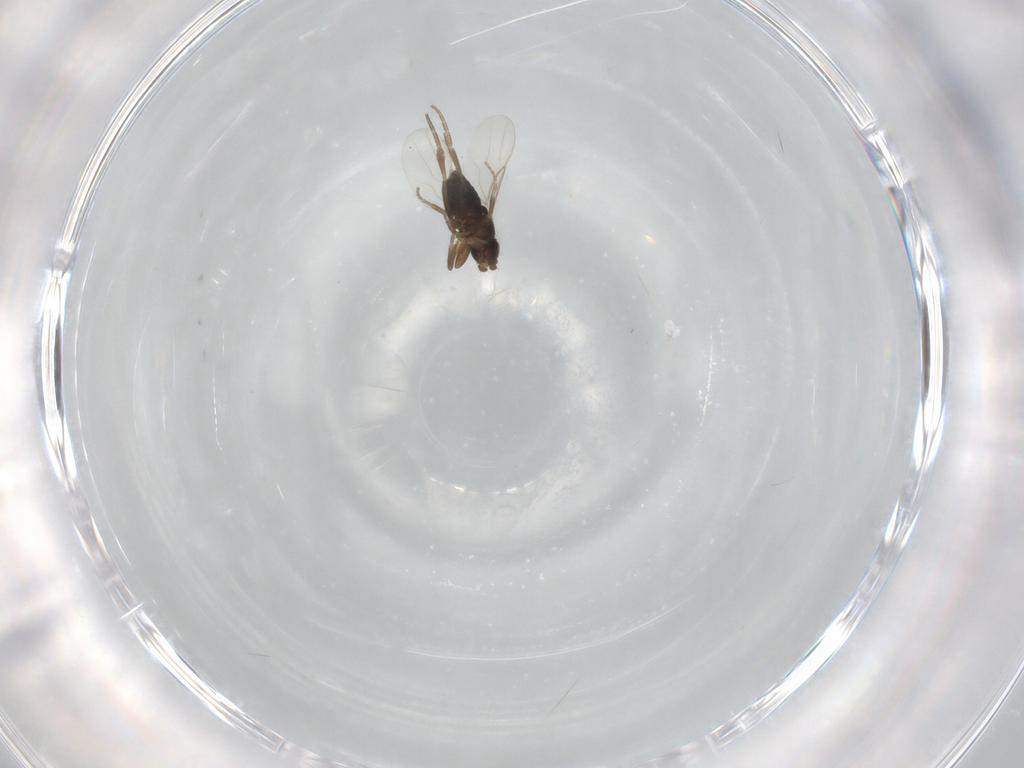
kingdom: Animalia
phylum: Arthropoda
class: Insecta
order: Diptera
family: Phoridae
